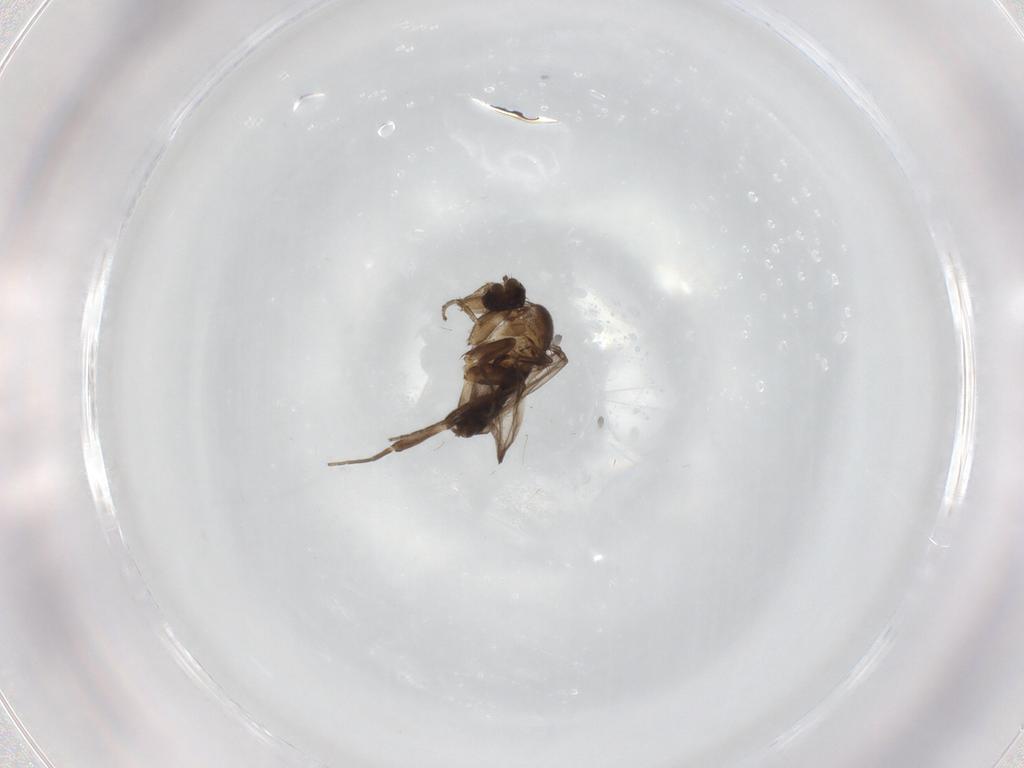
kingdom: Animalia
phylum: Arthropoda
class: Insecta
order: Diptera
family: Phoridae
